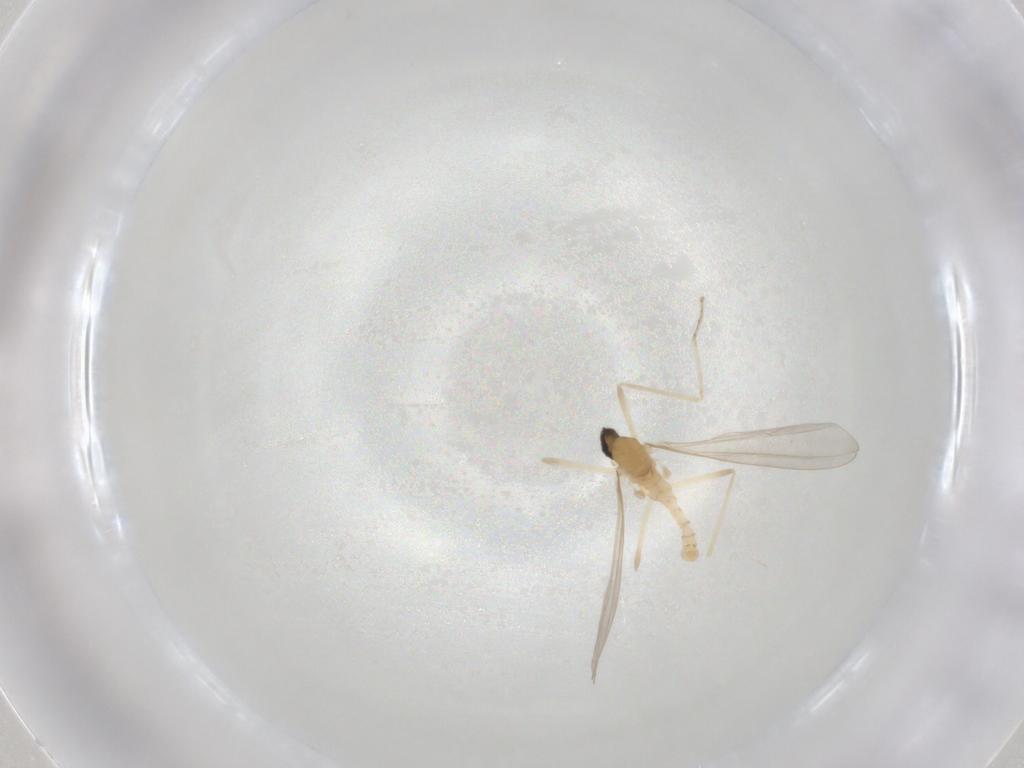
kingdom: Animalia
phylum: Arthropoda
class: Insecta
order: Diptera
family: Cecidomyiidae
